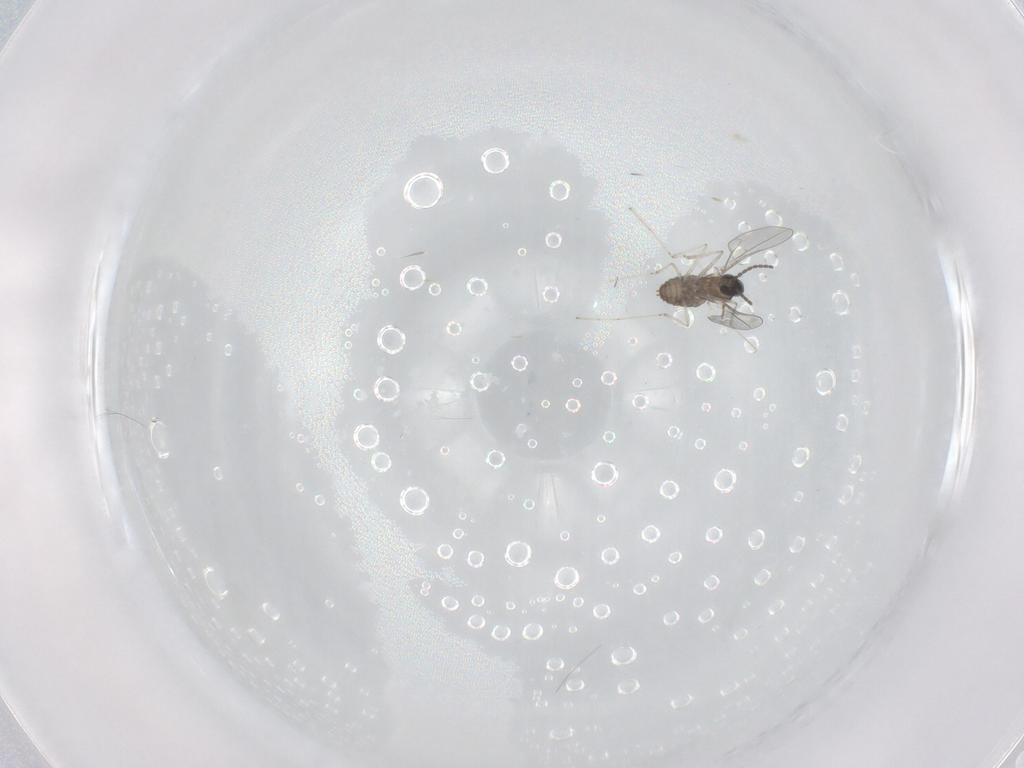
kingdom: Animalia
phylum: Arthropoda
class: Insecta
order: Diptera
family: Cecidomyiidae
